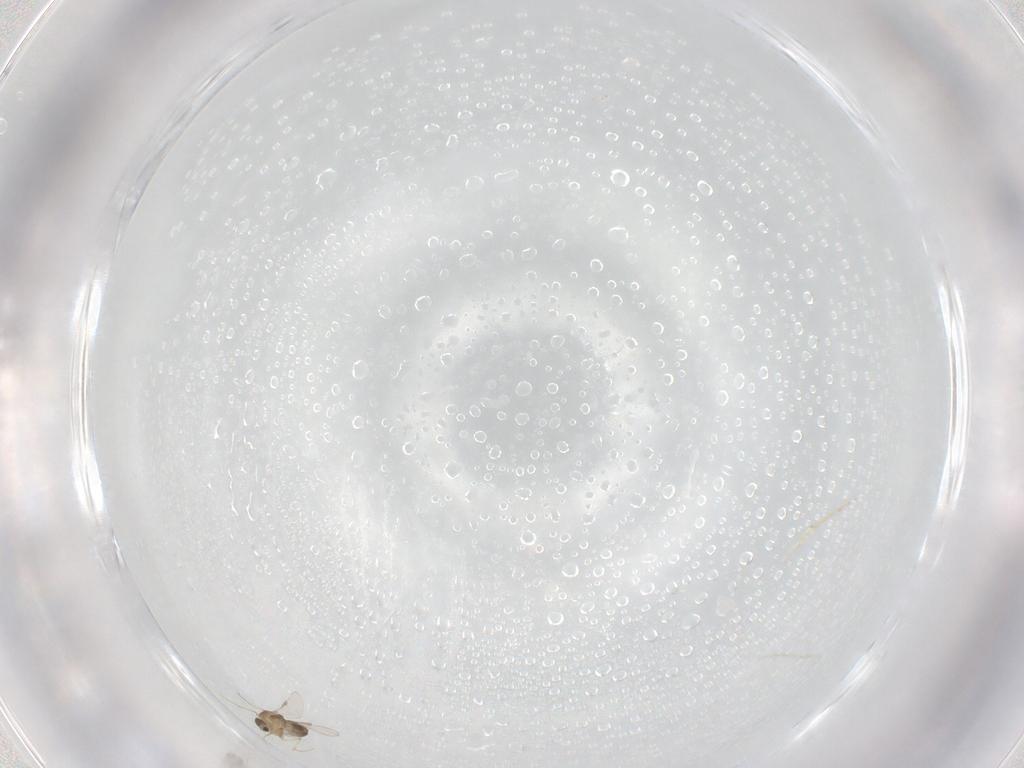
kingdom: Animalia
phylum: Arthropoda
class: Insecta
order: Diptera
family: Chironomidae
